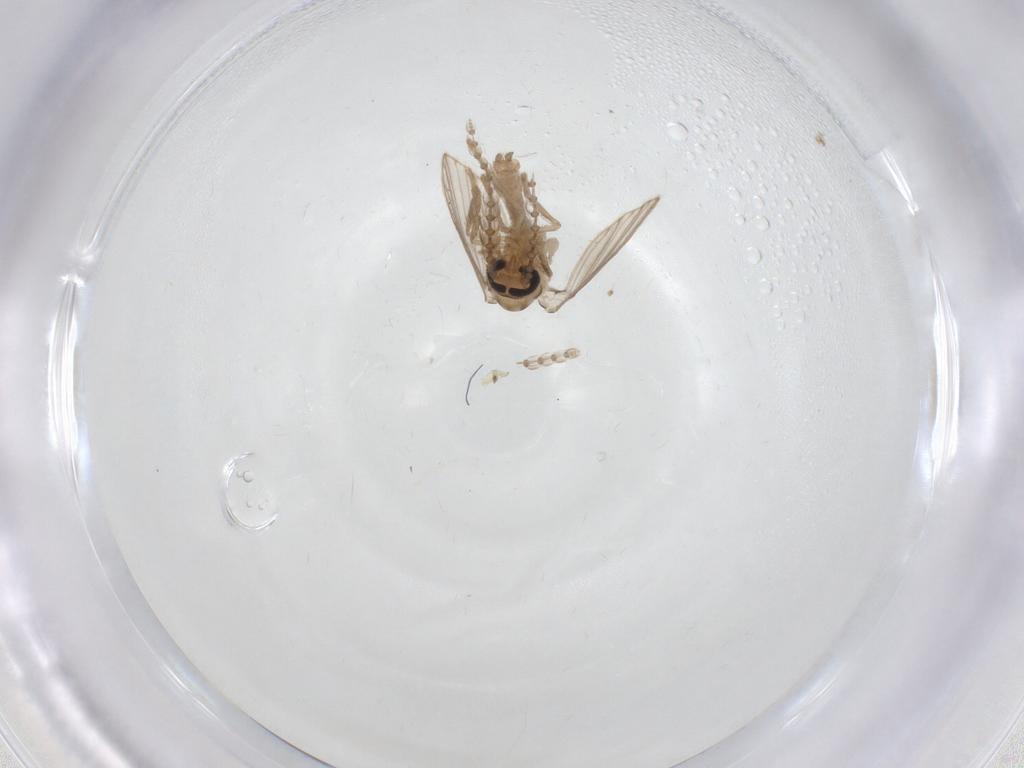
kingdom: Animalia
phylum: Arthropoda
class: Insecta
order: Diptera
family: Psychodidae
